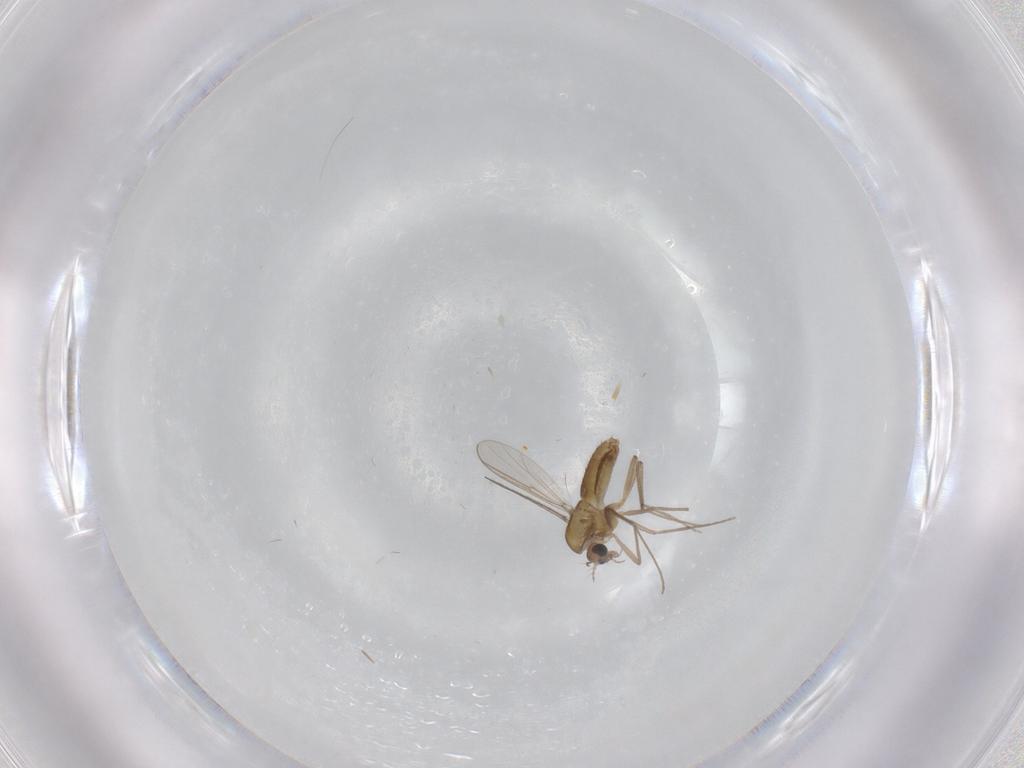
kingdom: Animalia
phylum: Arthropoda
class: Insecta
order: Diptera
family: Chironomidae
